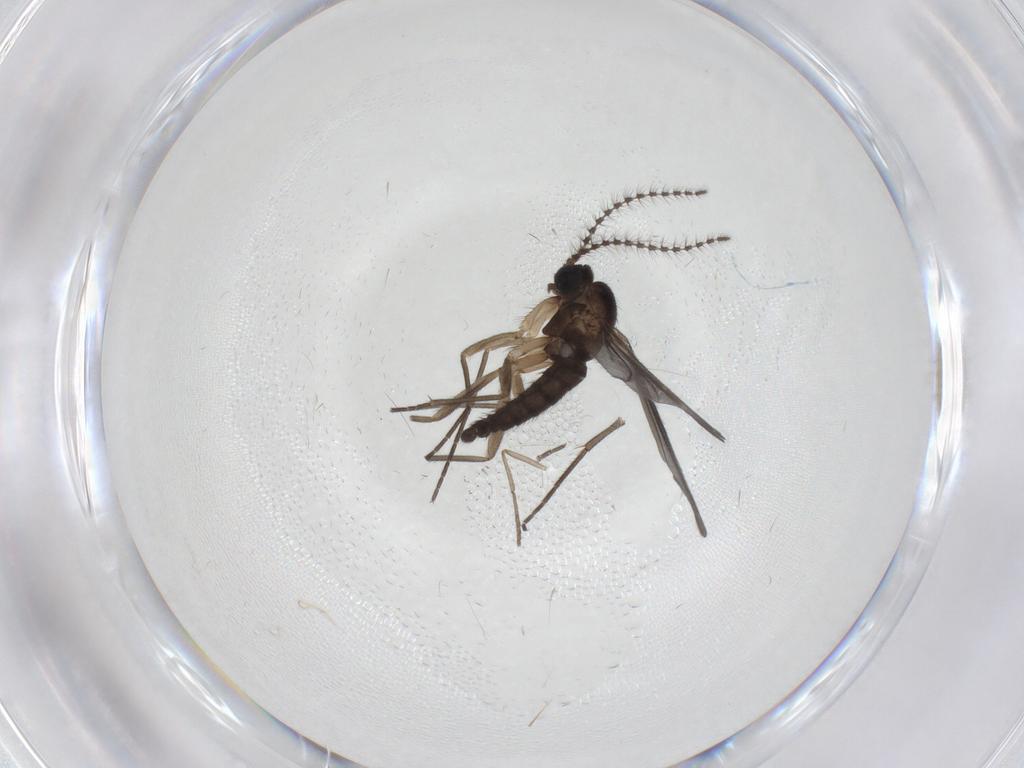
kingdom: Animalia
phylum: Arthropoda
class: Insecta
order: Diptera
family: Sciaridae
